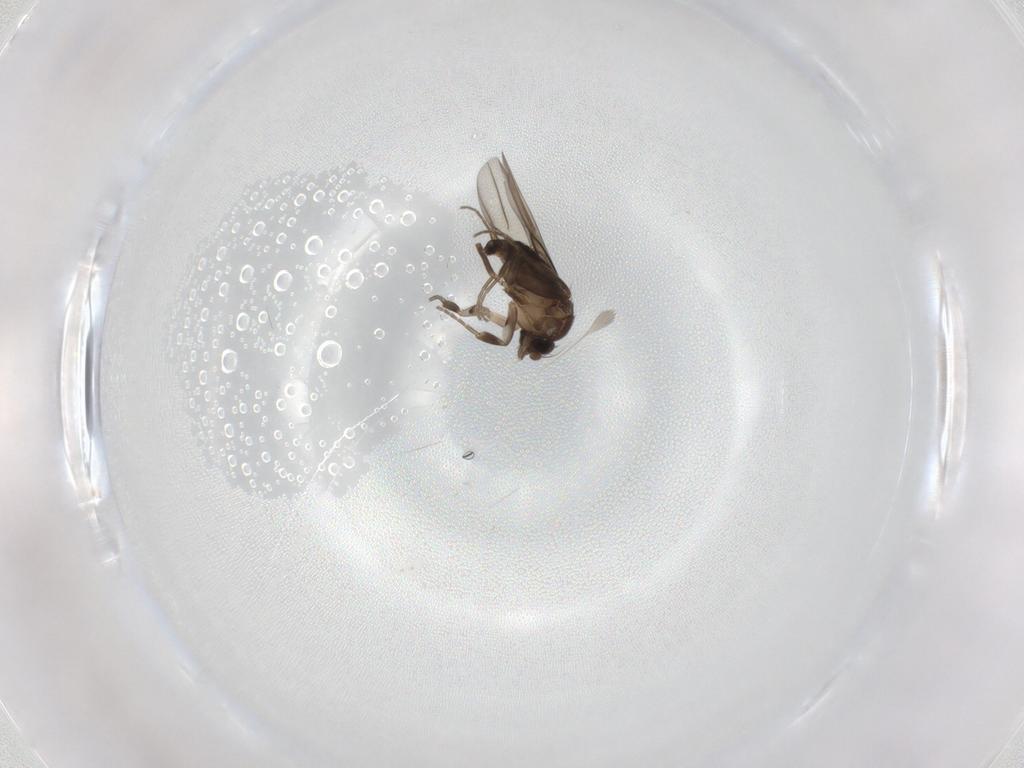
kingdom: Animalia
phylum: Arthropoda
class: Insecta
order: Diptera
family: Phoridae
